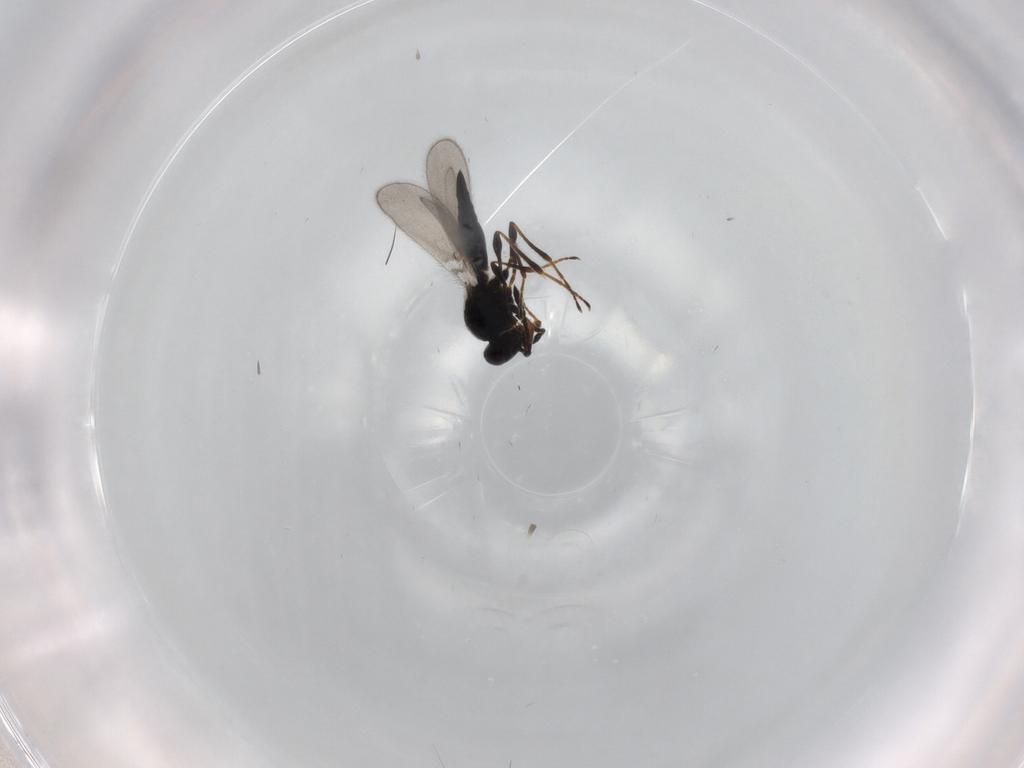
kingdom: Animalia
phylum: Arthropoda
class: Insecta
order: Hymenoptera
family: Platygastridae
